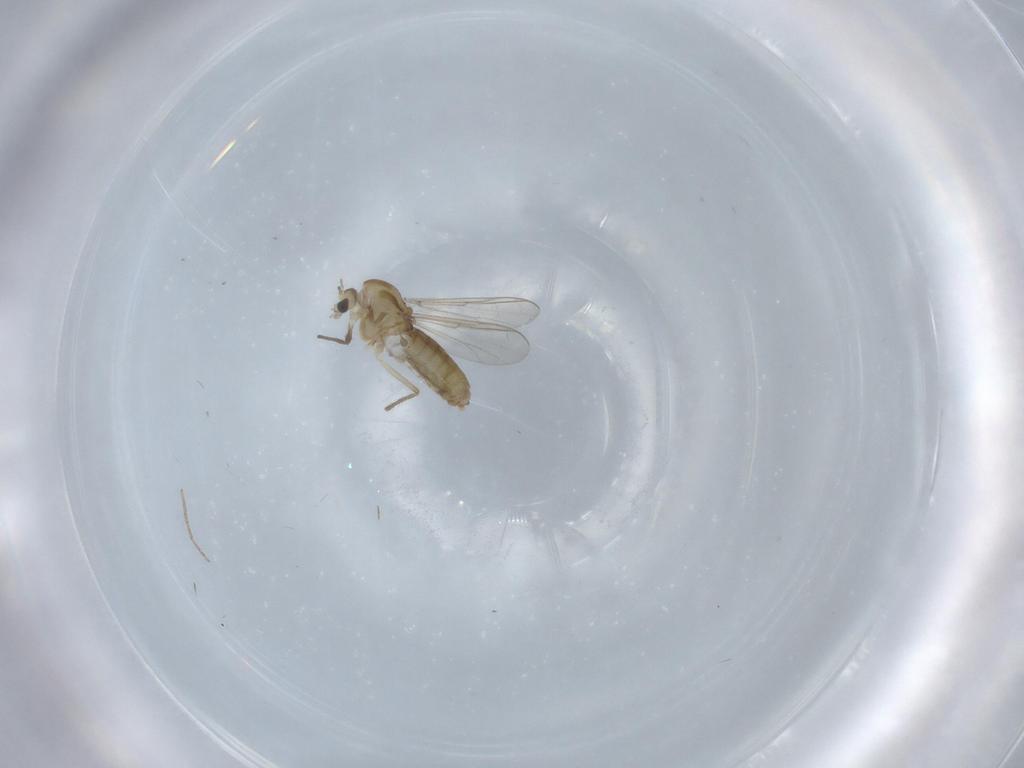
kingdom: Animalia
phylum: Arthropoda
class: Insecta
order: Diptera
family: Chironomidae
